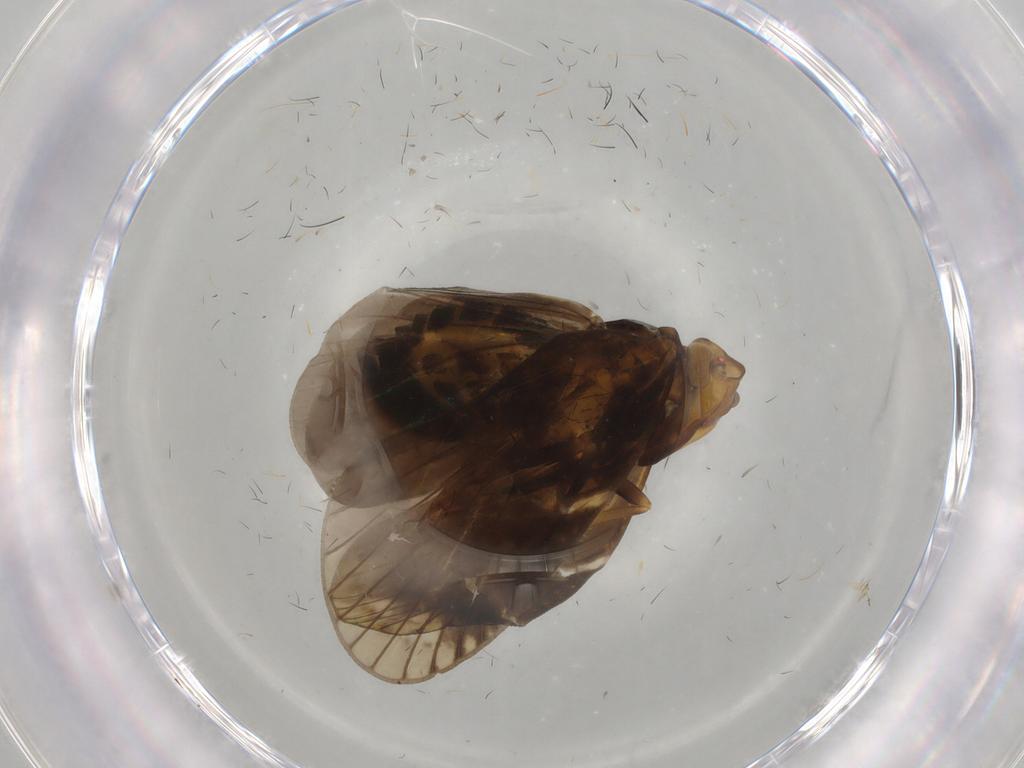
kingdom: Animalia
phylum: Arthropoda
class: Insecta
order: Hemiptera
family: Cixiidae
